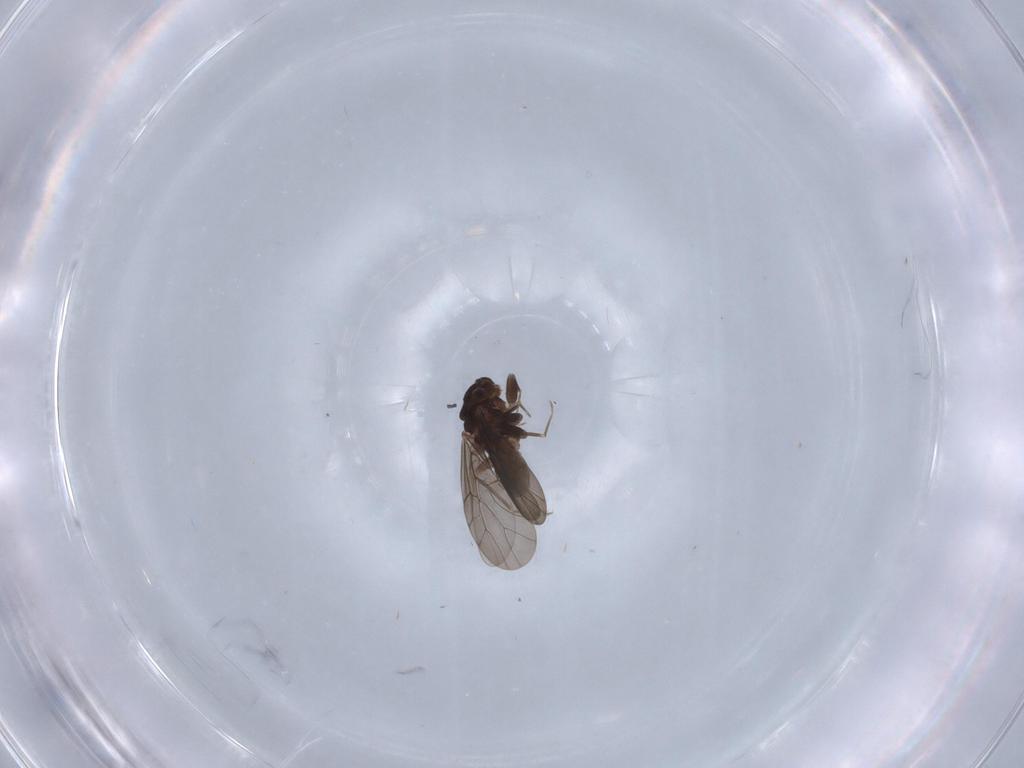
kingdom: Animalia
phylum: Arthropoda
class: Insecta
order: Psocodea
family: Lepidopsocidae
